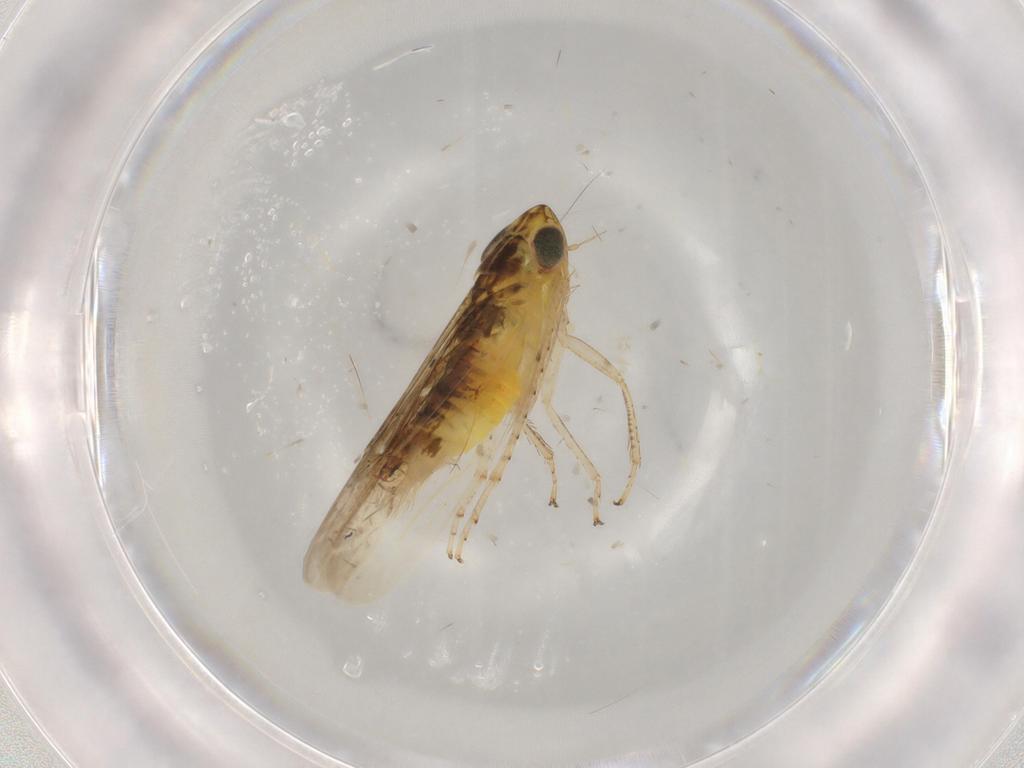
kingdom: Animalia
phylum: Arthropoda
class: Insecta
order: Hemiptera
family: Cicadellidae
